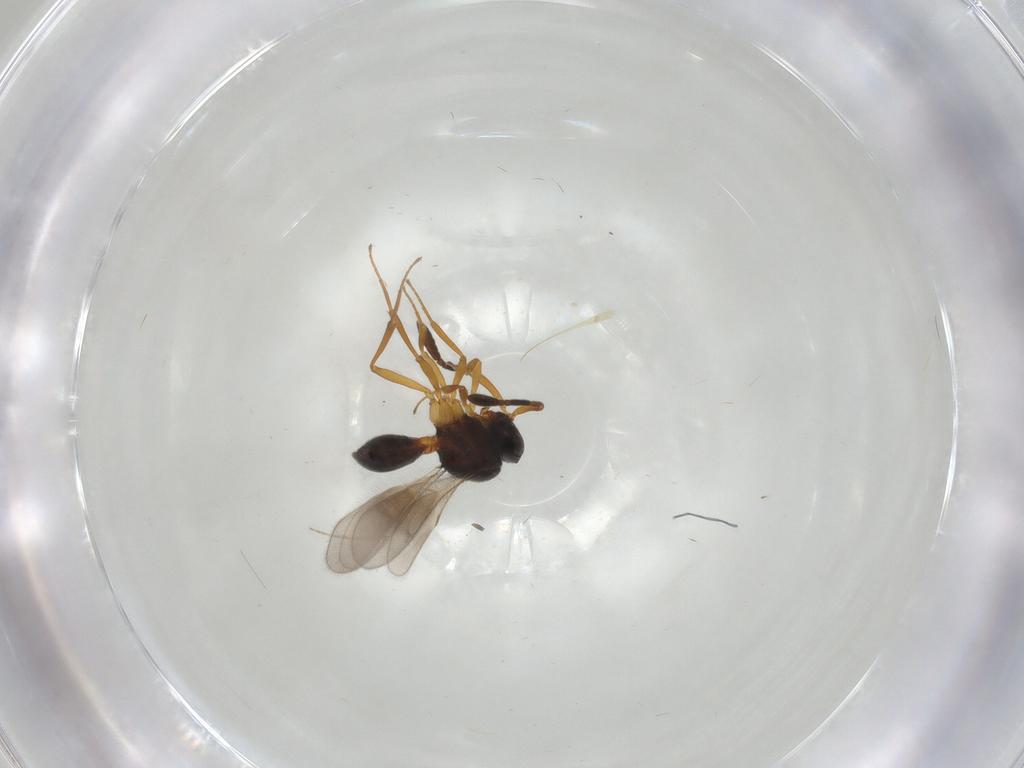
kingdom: Animalia
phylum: Arthropoda
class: Insecta
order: Hymenoptera
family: Scelionidae
